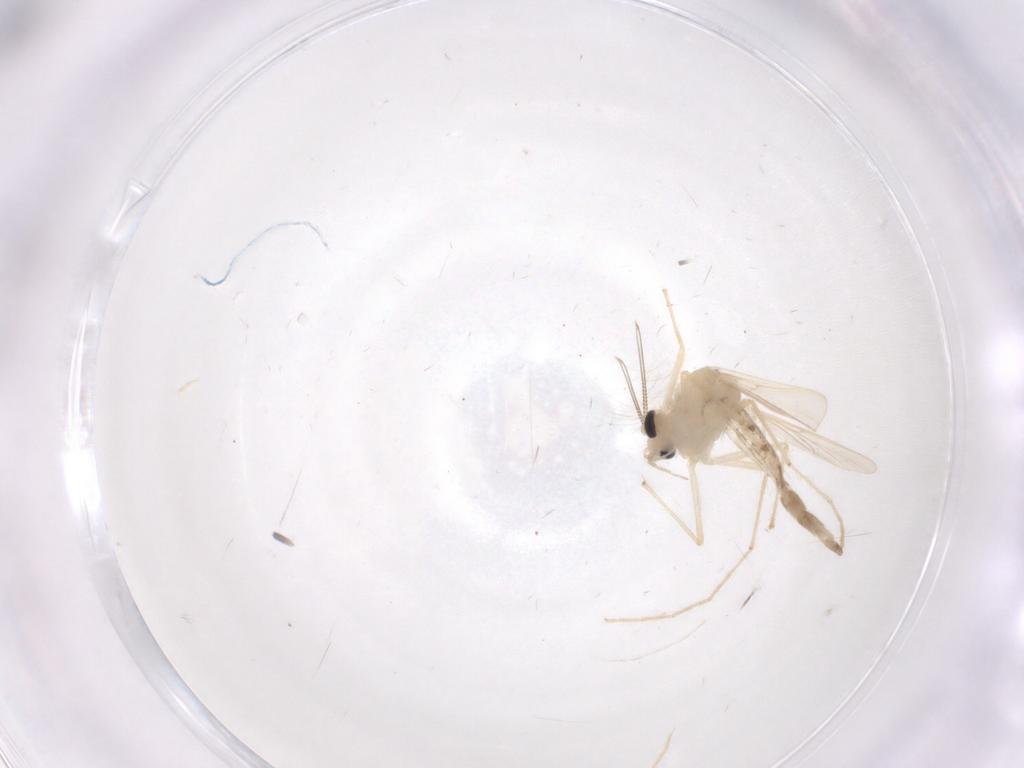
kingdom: Animalia
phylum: Arthropoda
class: Insecta
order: Diptera
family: Chironomidae
